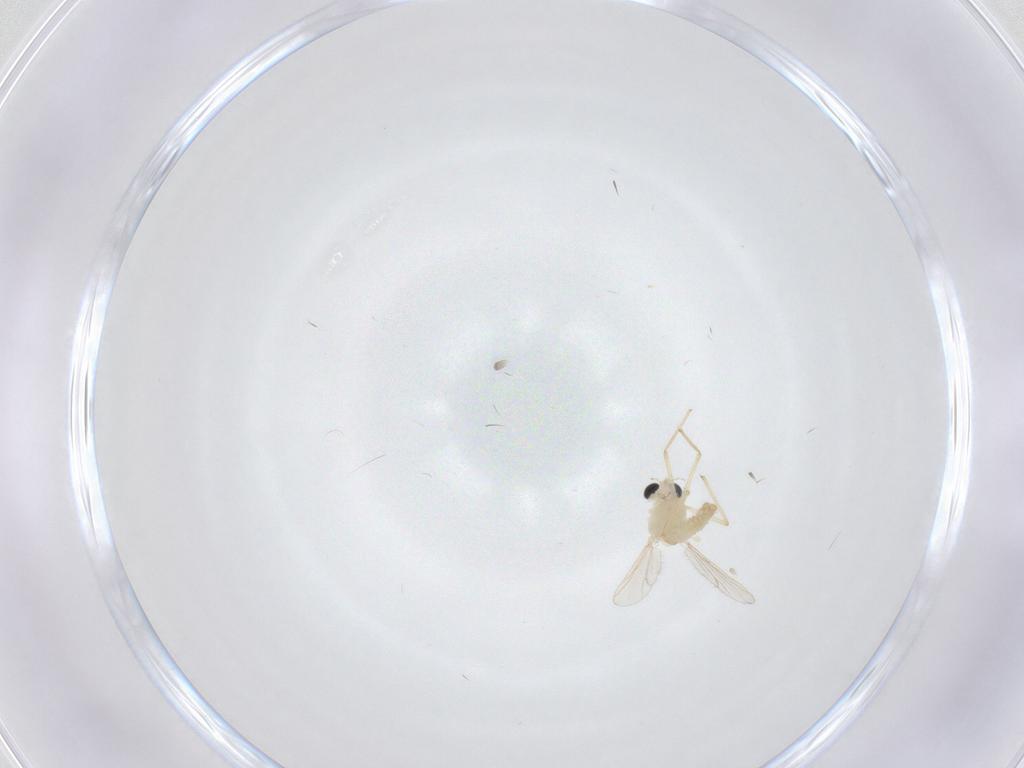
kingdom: Animalia
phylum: Arthropoda
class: Insecta
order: Diptera
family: Chironomidae
